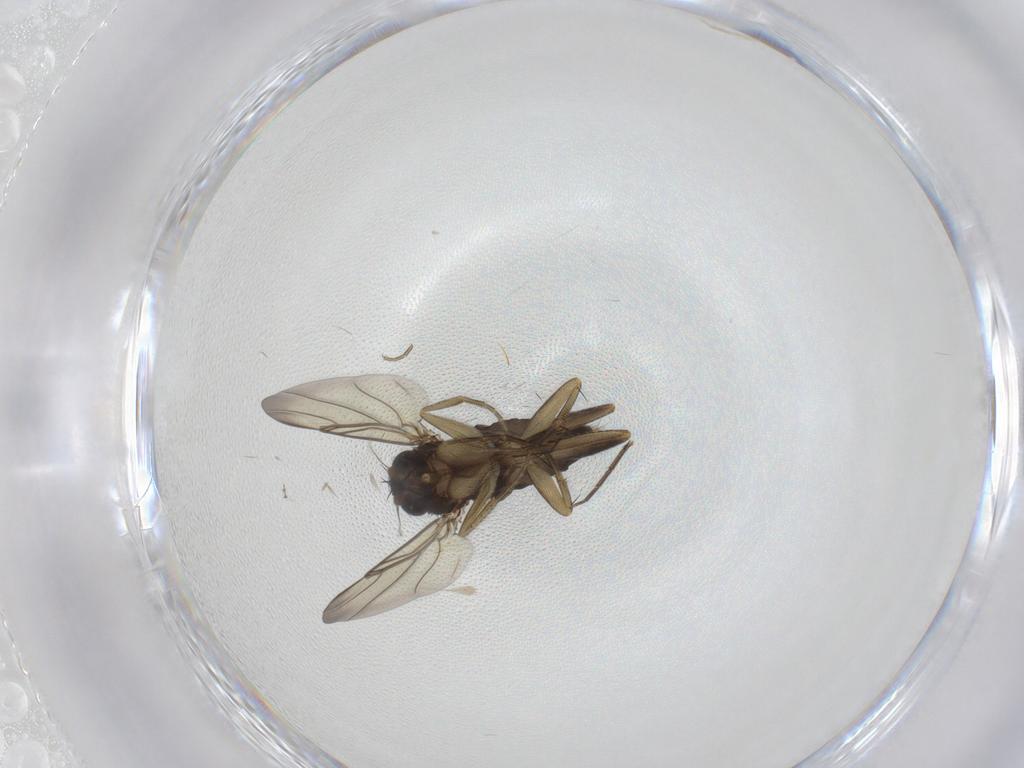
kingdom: Animalia
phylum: Arthropoda
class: Insecta
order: Diptera
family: Phoridae
